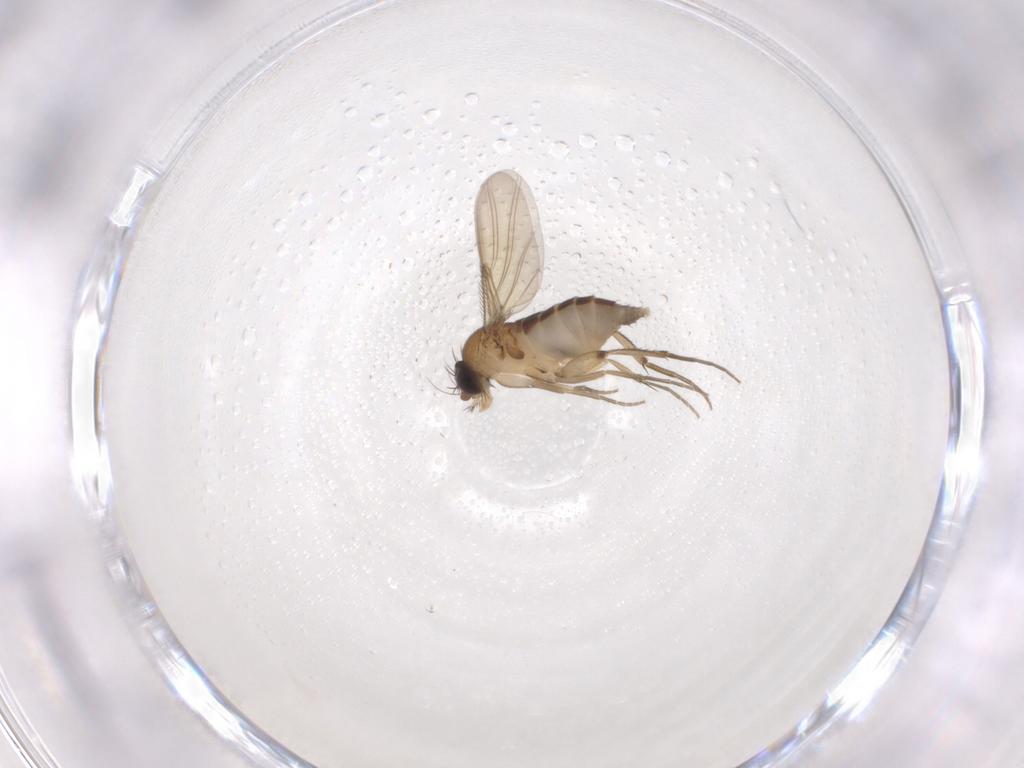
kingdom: Animalia
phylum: Arthropoda
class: Insecta
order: Diptera
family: Phoridae
